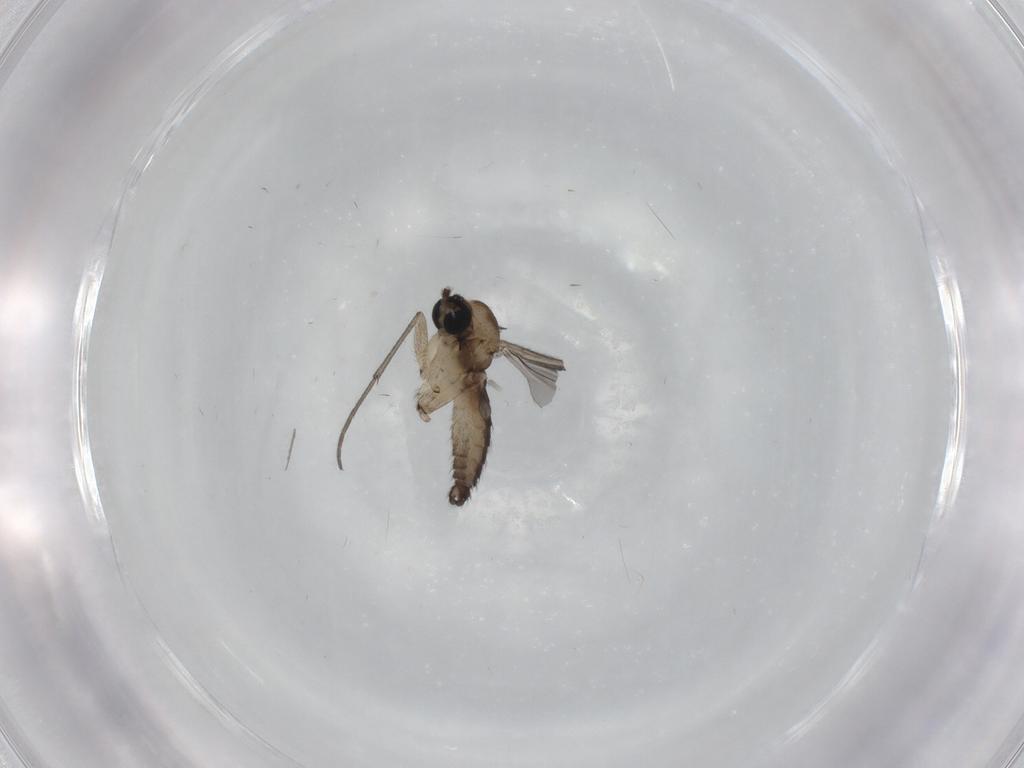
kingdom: Animalia
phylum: Arthropoda
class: Insecta
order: Diptera
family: Sciaridae
